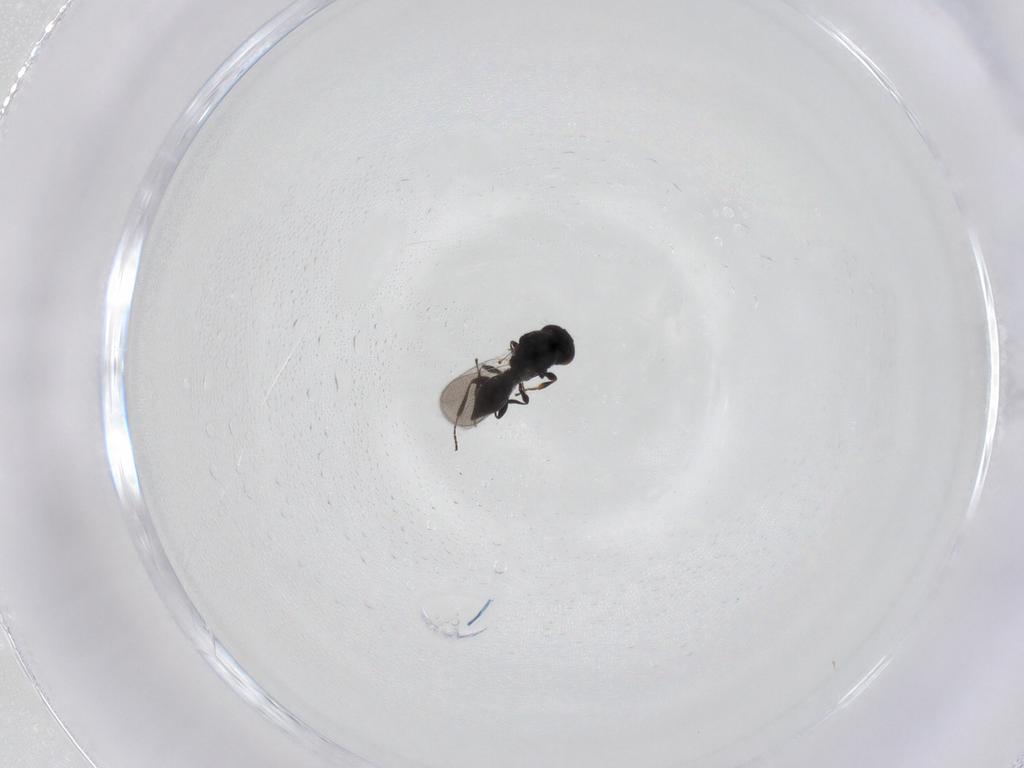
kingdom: Animalia
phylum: Arthropoda
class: Insecta
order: Hymenoptera
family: Platygastridae
